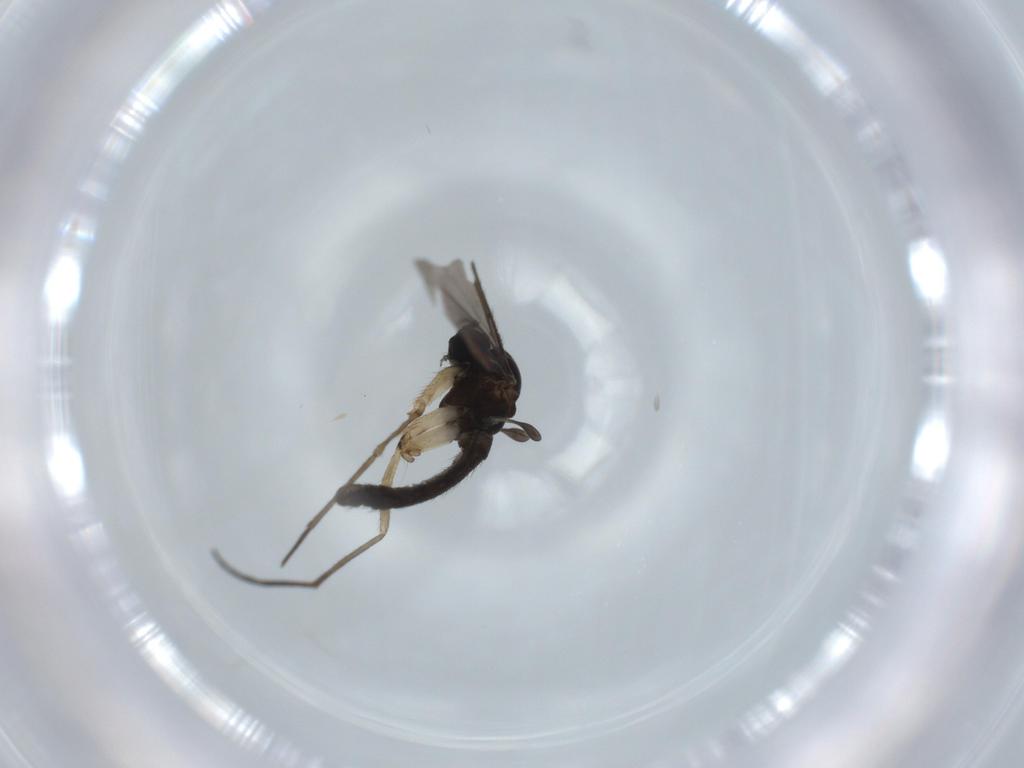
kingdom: Animalia
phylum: Arthropoda
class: Insecta
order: Diptera
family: Sciaridae
